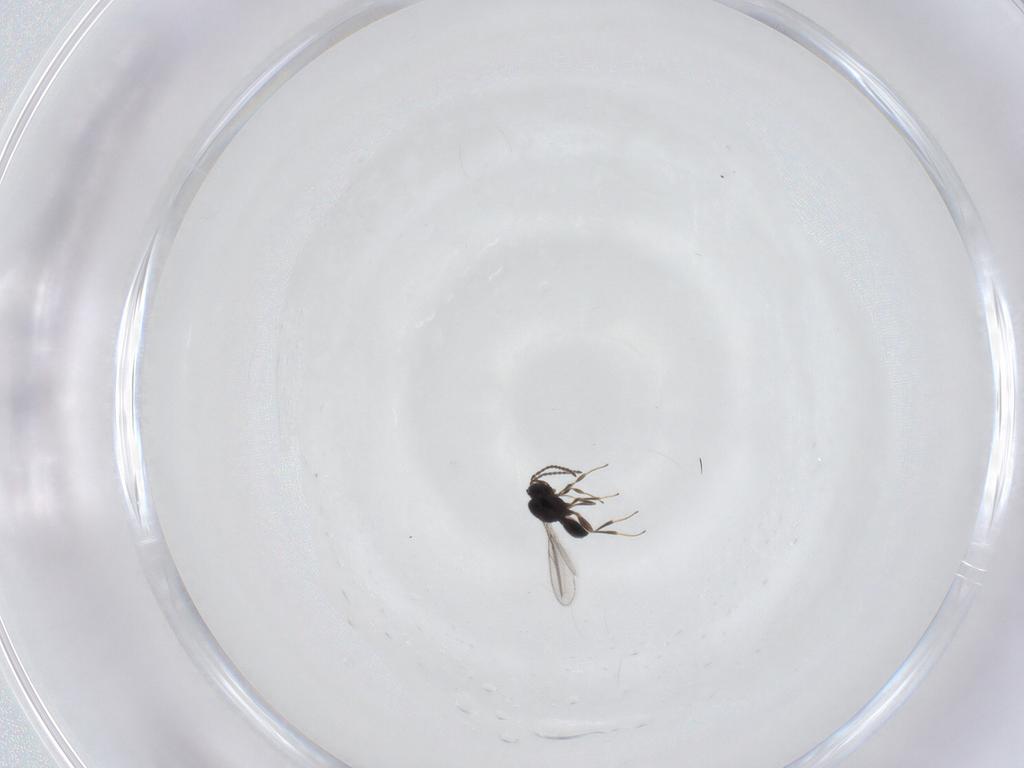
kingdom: Animalia
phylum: Arthropoda
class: Insecta
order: Hymenoptera
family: Scelionidae
